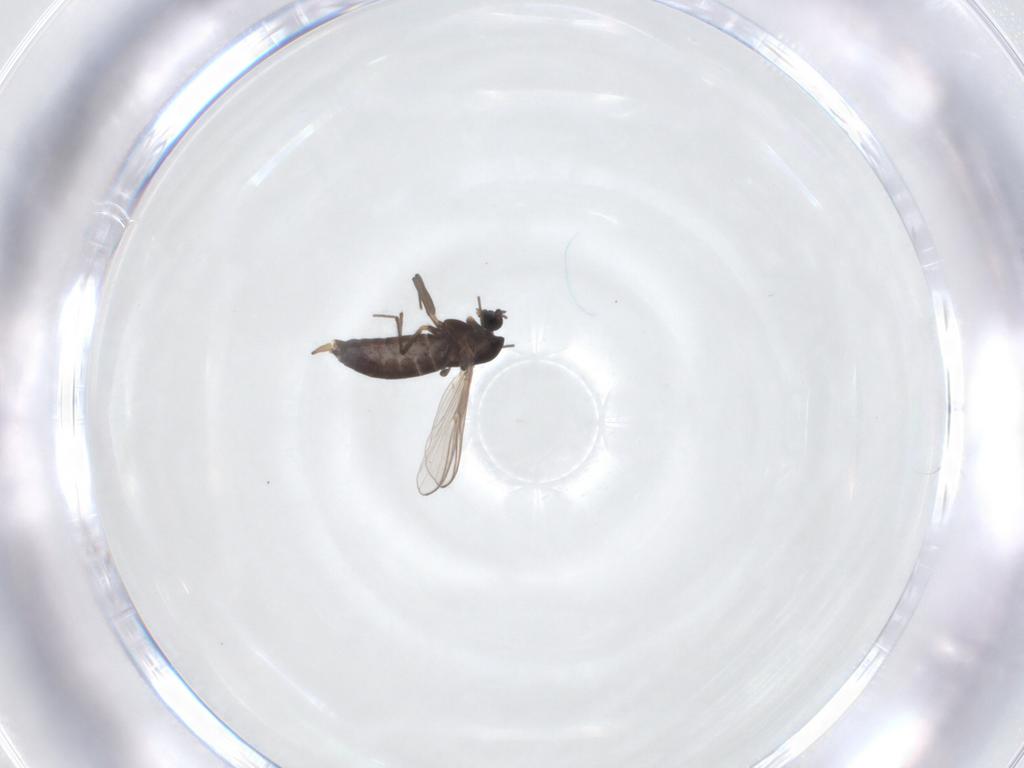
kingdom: Animalia
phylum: Arthropoda
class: Insecta
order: Diptera
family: Chironomidae
